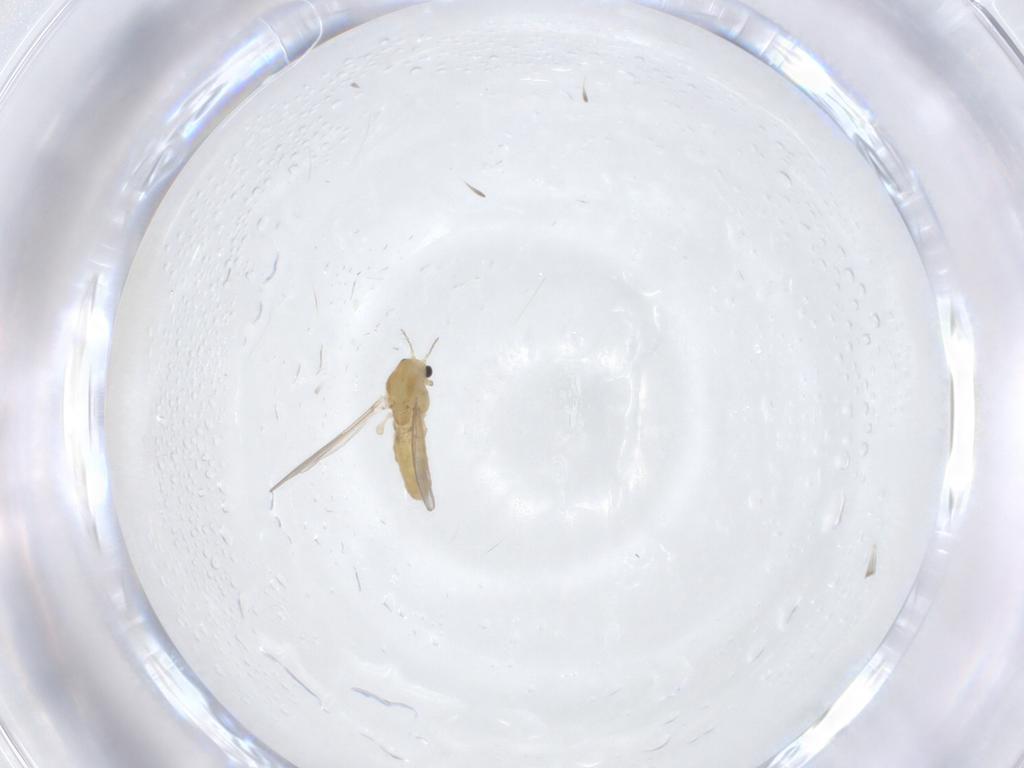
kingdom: Animalia
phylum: Arthropoda
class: Insecta
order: Diptera
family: Chironomidae
